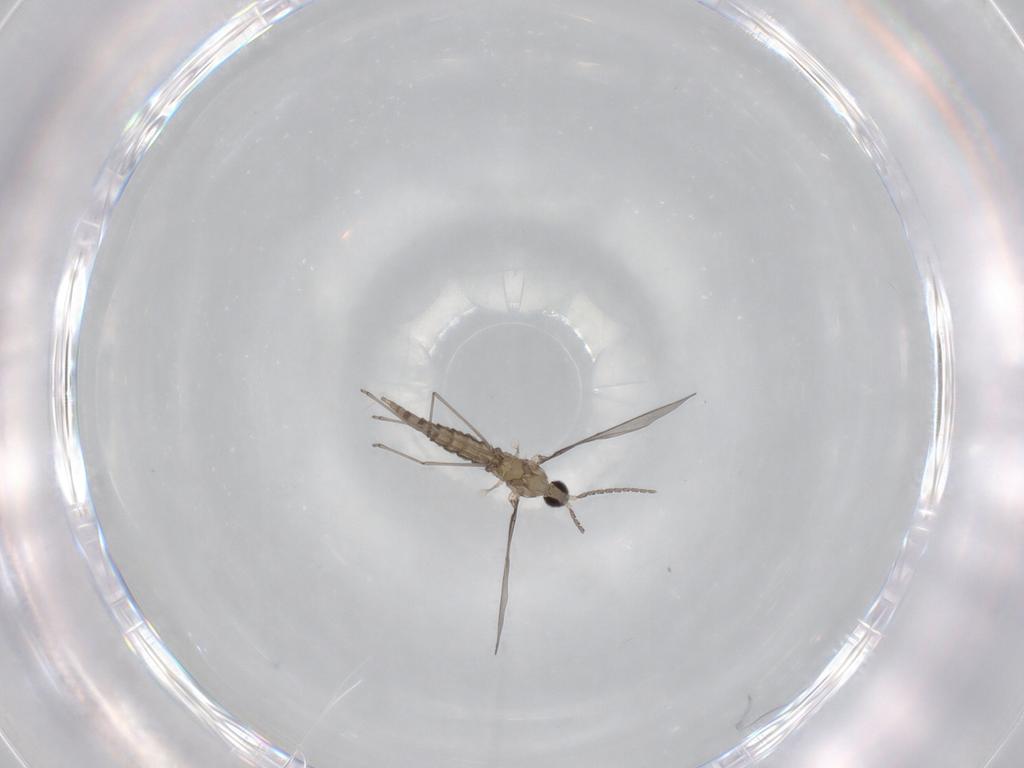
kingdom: Animalia
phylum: Arthropoda
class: Insecta
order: Diptera
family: Cecidomyiidae
